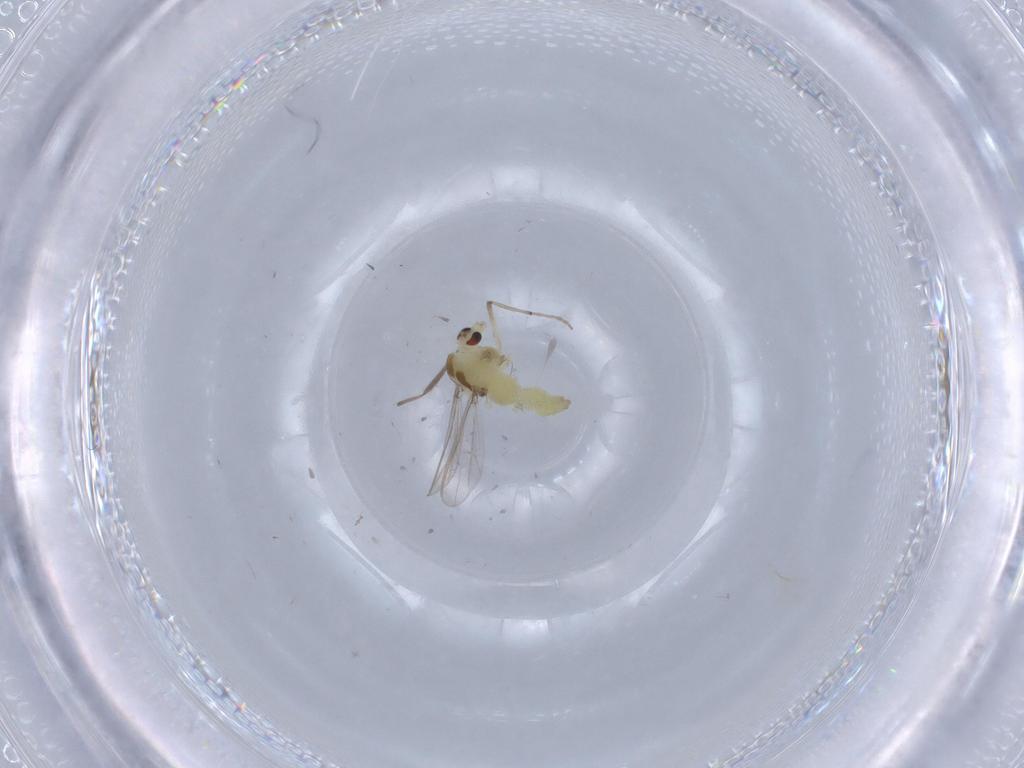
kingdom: Animalia
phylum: Arthropoda
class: Insecta
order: Diptera
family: Chironomidae
